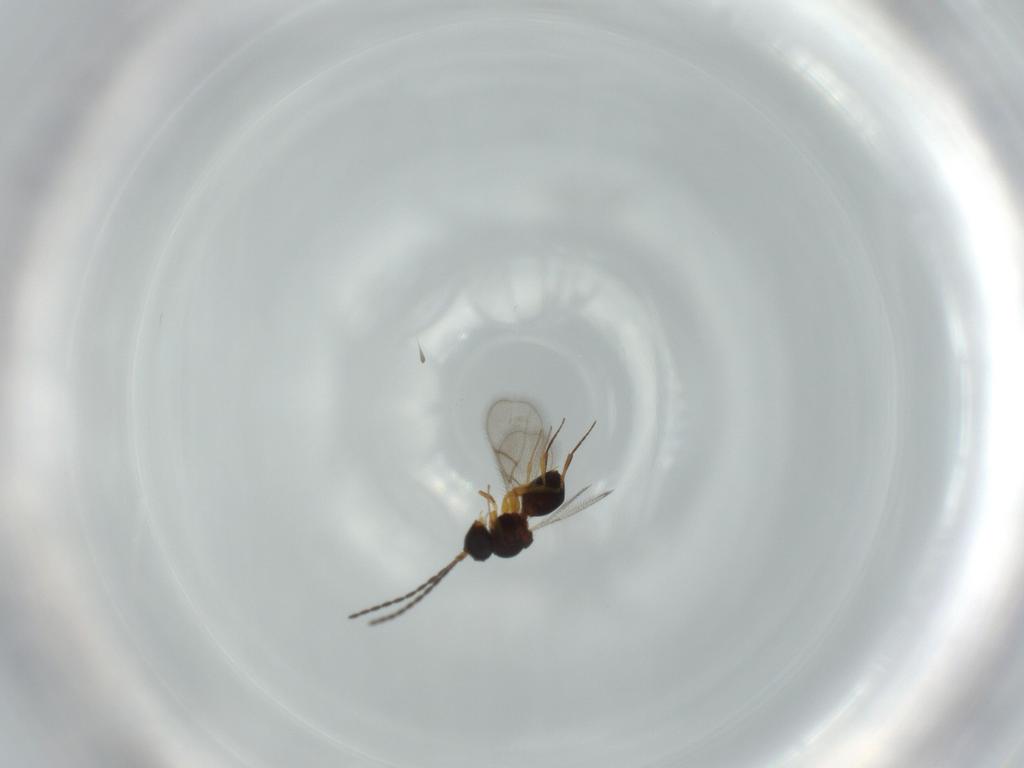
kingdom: Animalia
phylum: Arthropoda
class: Insecta
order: Hymenoptera
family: Figitidae
